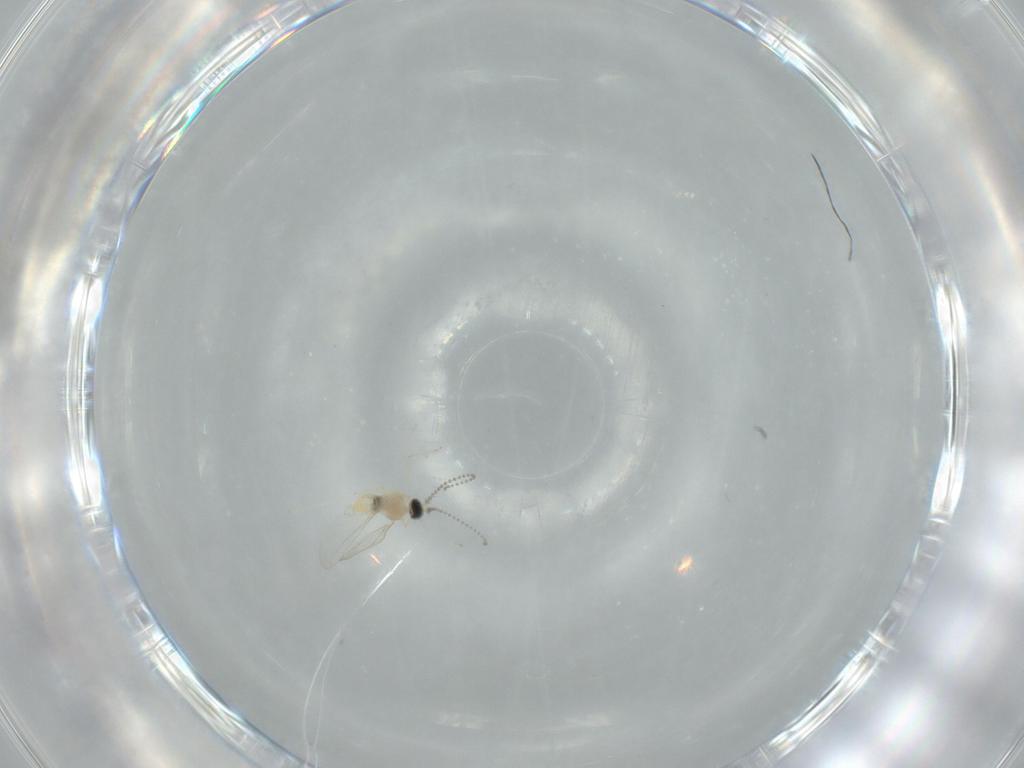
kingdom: Animalia
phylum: Arthropoda
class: Insecta
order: Diptera
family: Cecidomyiidae
